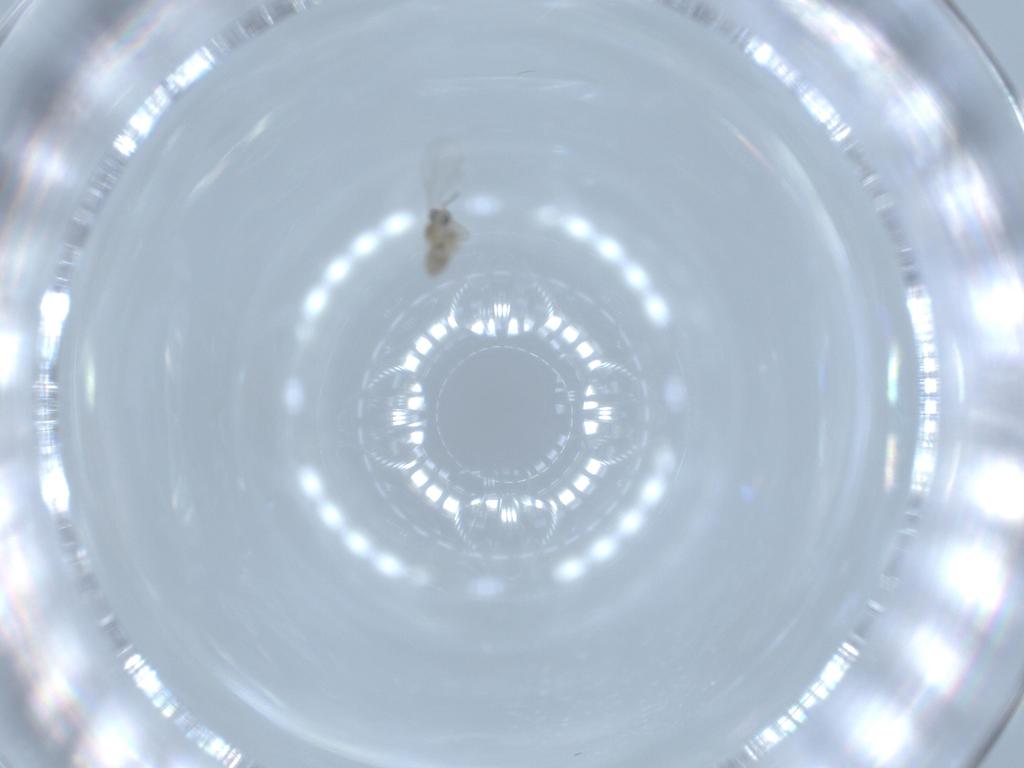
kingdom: Animalia
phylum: Arthropoda
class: Insecta
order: Diptera
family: Cecidomyiidae
